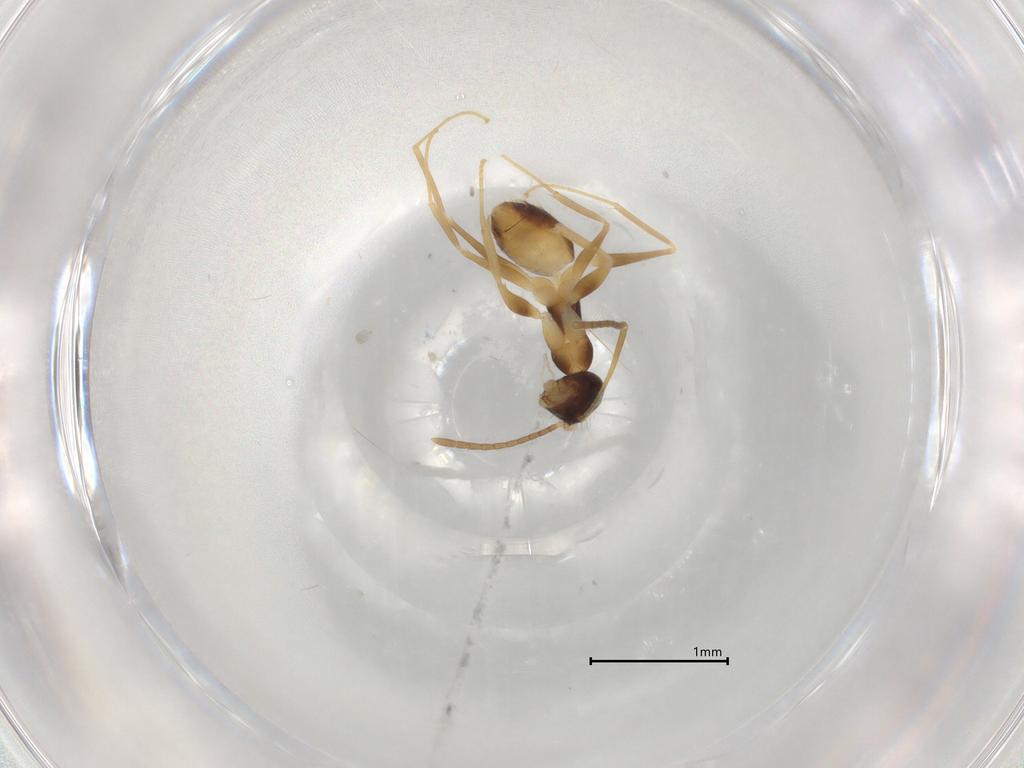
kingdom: Animalia
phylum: Arthropoda
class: Insecta
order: Hymenoptera
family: Formicidae
